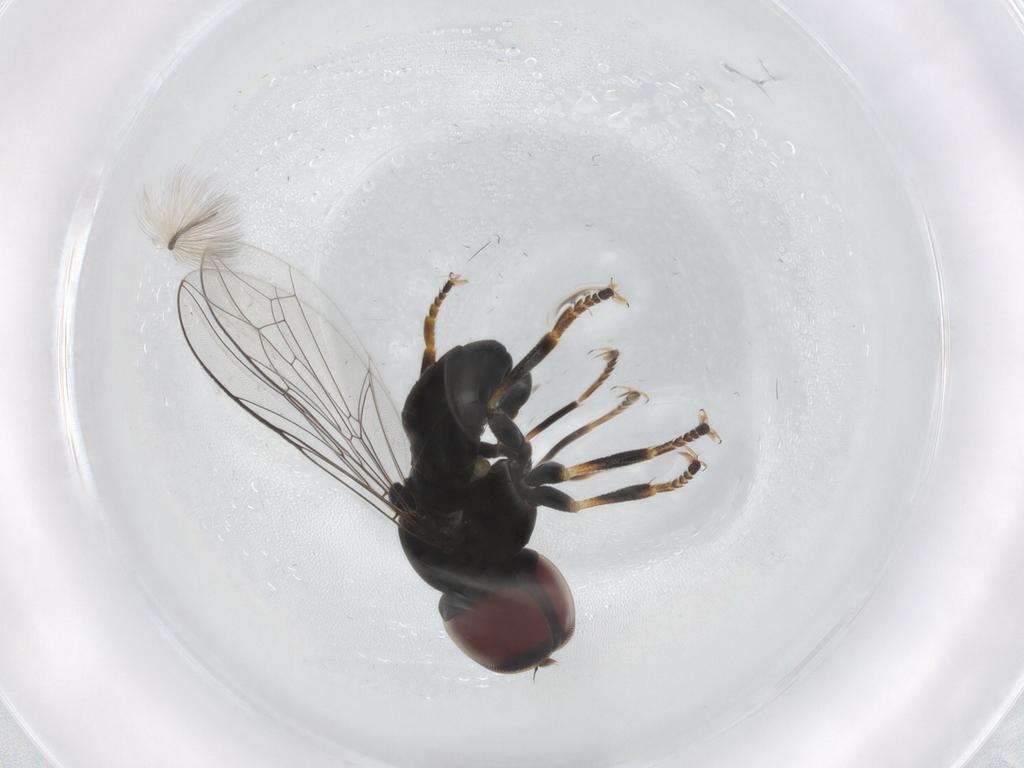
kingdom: Animalia
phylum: Arthropoda
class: Insecta
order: Diptera
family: Pipunculidae
